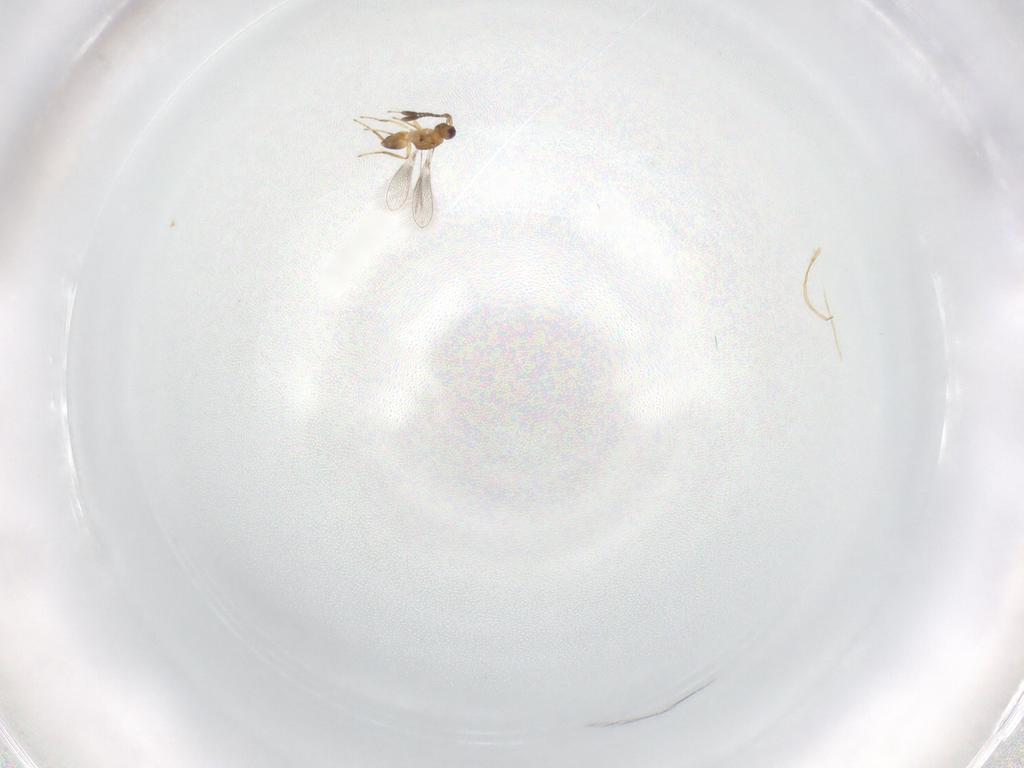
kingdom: Animalia
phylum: Arthropoda
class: Insecta
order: Hymenoptera
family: Mymaridae
